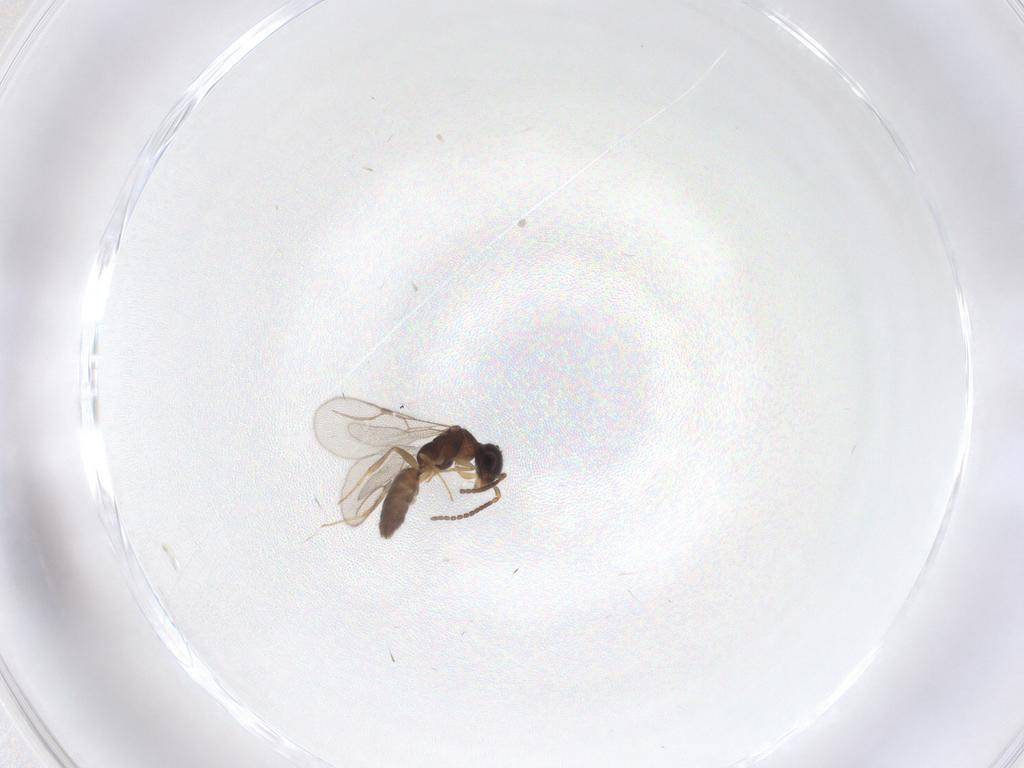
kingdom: Animalia
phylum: Arthropoda
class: Insecta
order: Hymenoptera
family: Bethylidae
